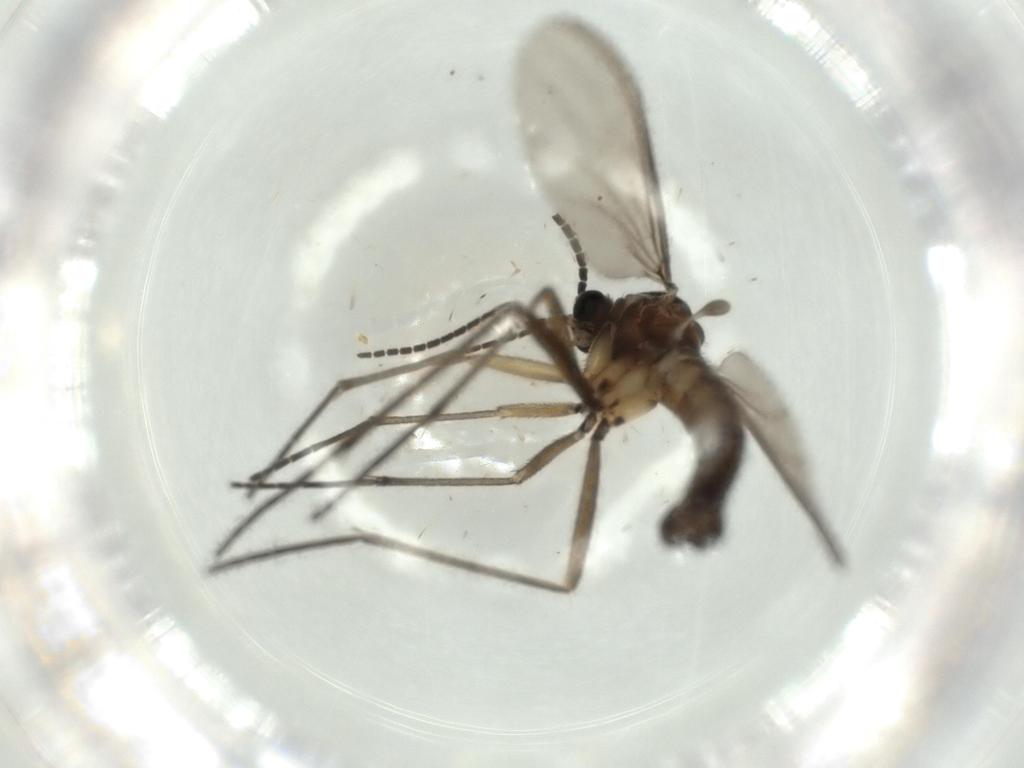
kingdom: Animalia
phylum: Arthropoda
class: Insecta
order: Diptera
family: Sciaridae
